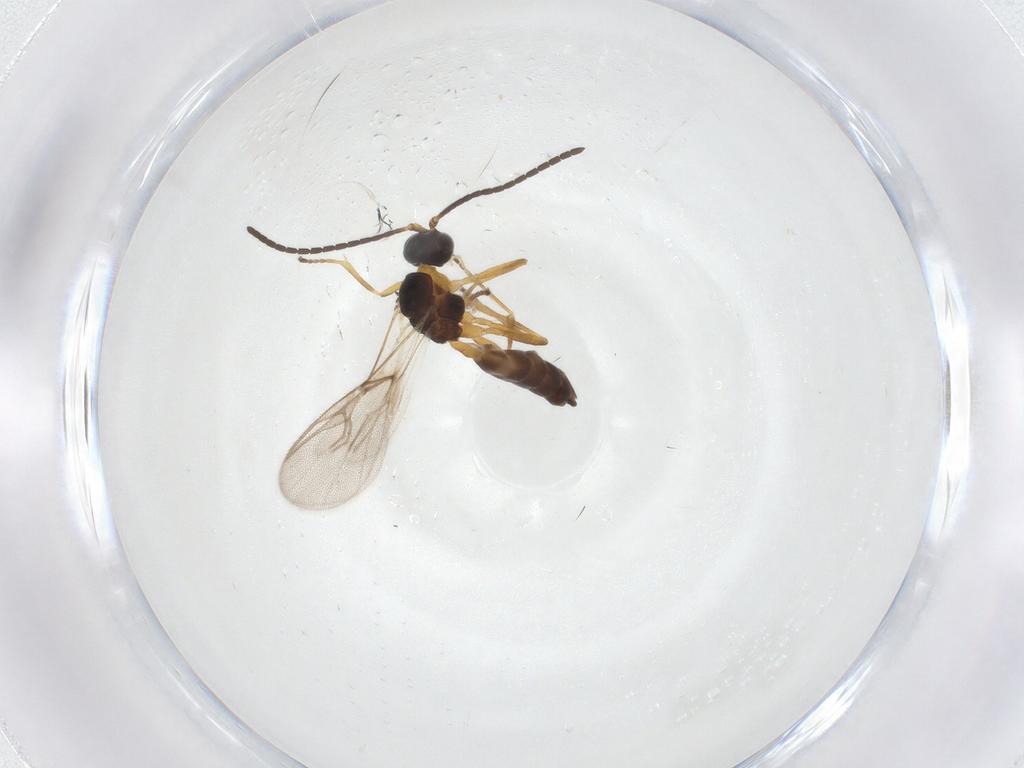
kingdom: Animalia
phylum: Arthropoda
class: Insecta
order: Hymenoptera
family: Braconidae
